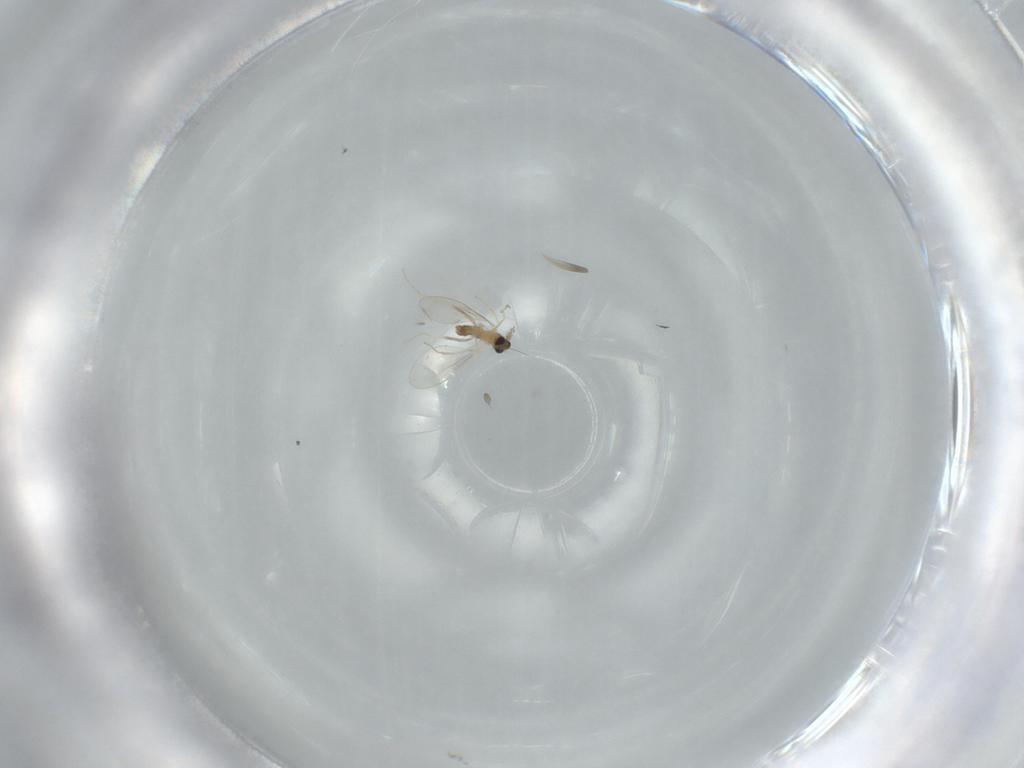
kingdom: Animalia
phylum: Arthropoda
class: Insecta
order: Diptera
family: Cecidomyiidae
